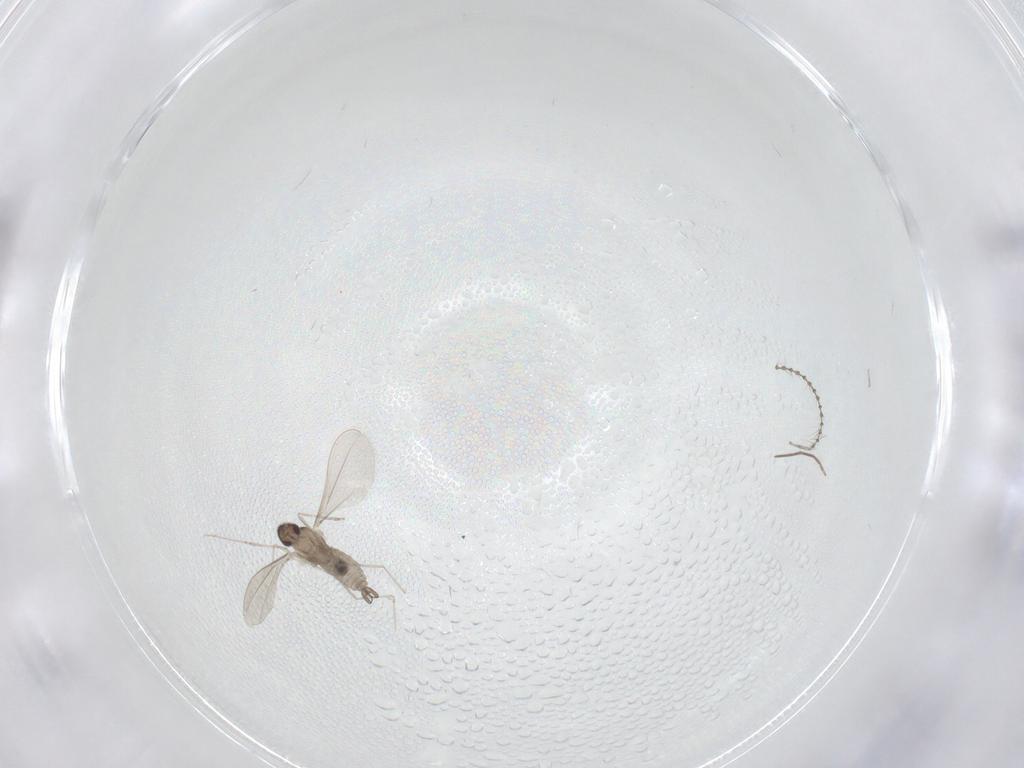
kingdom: Animalia
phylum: Arthropoda
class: Insecta
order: Diptera
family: Cecidomyiidae
